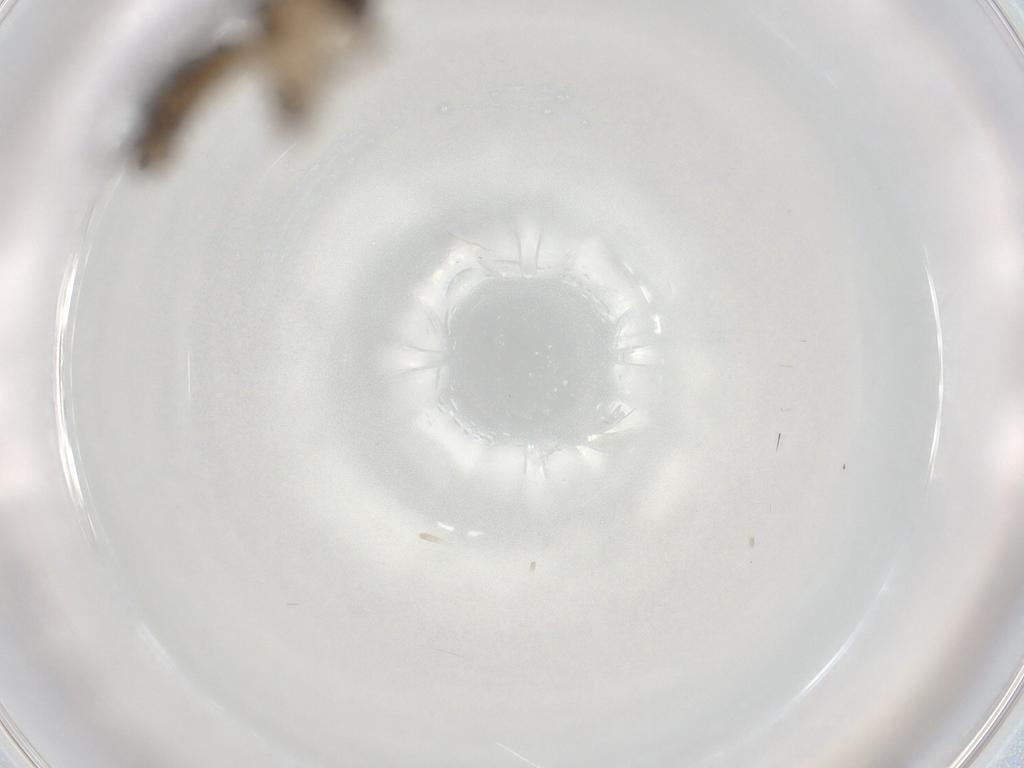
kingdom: Animalia
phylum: Arthropoda
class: Insecta
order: Diptera
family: Keroplatidae
